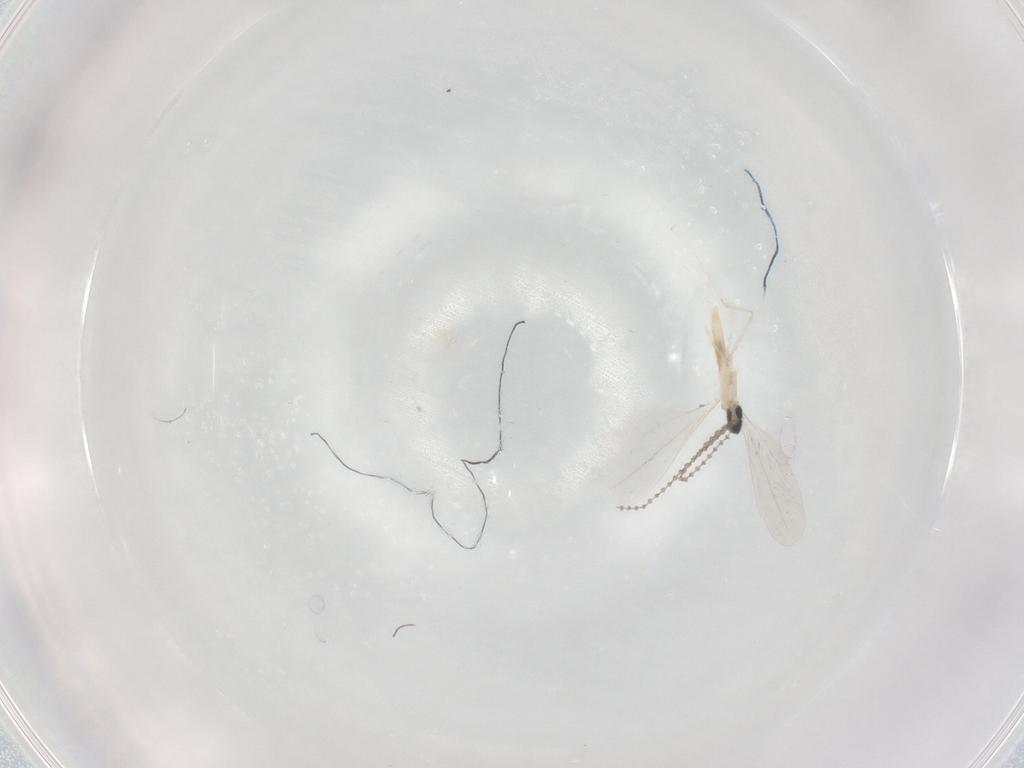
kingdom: Animalia
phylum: Arthropoda
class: Insecta
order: Diptera
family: Cecidomyiidae
